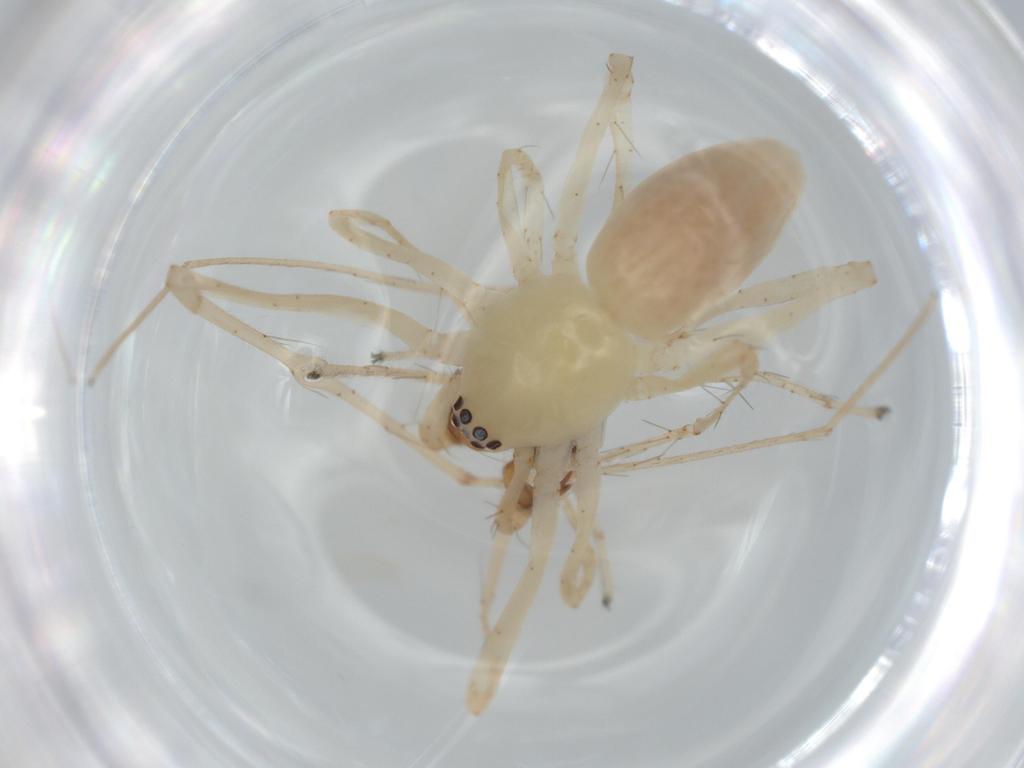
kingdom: Animalia
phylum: Arthropoda
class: Arachnida
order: Araneae
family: Anyphaenidae
